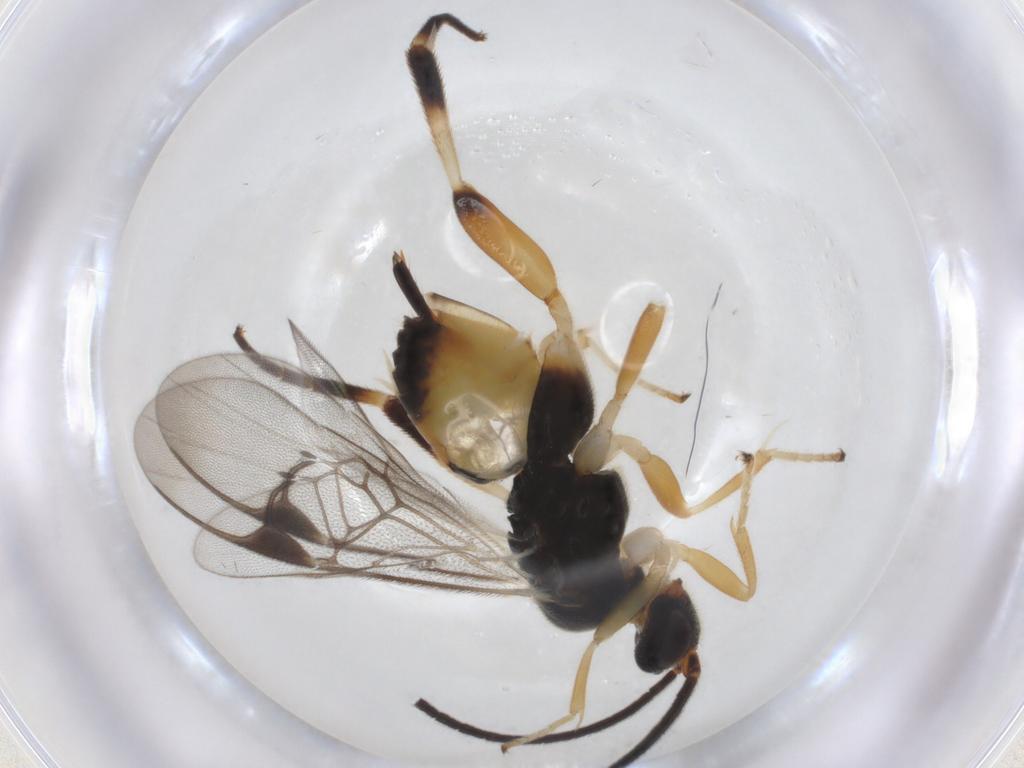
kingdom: Animalia
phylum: Arthropoda
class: Insecta
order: Hymenoptera
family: Braconidae
